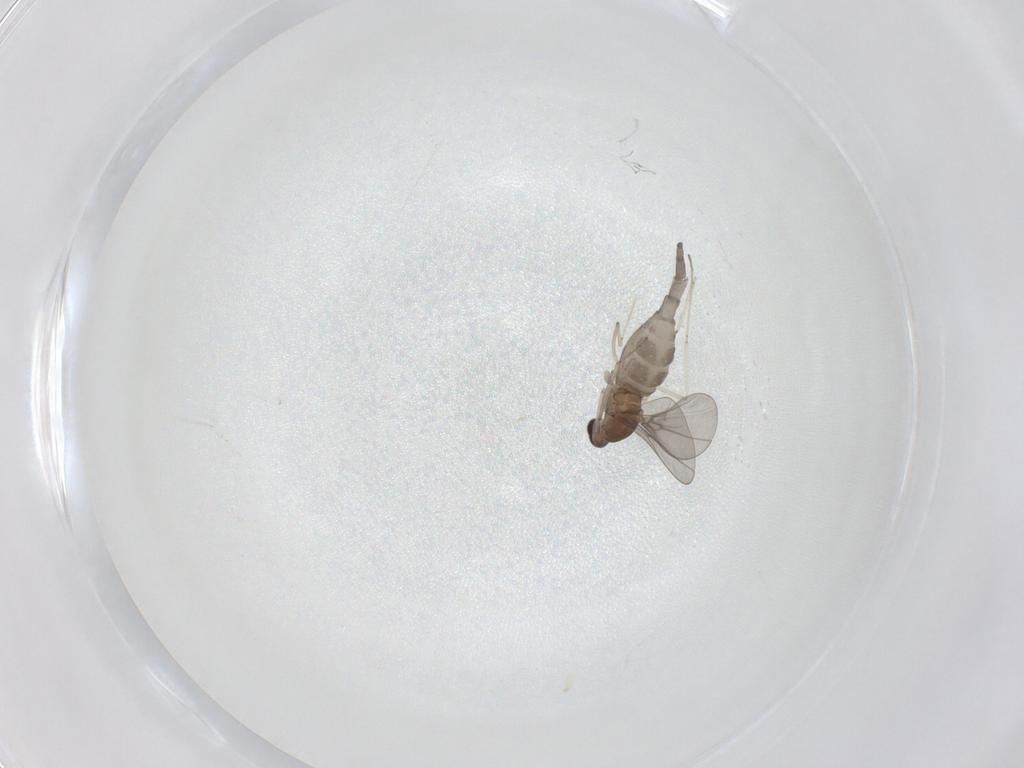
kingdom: Animalia
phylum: Arthropoda
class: Insecta
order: Diptera
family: Cecidomyiidae
